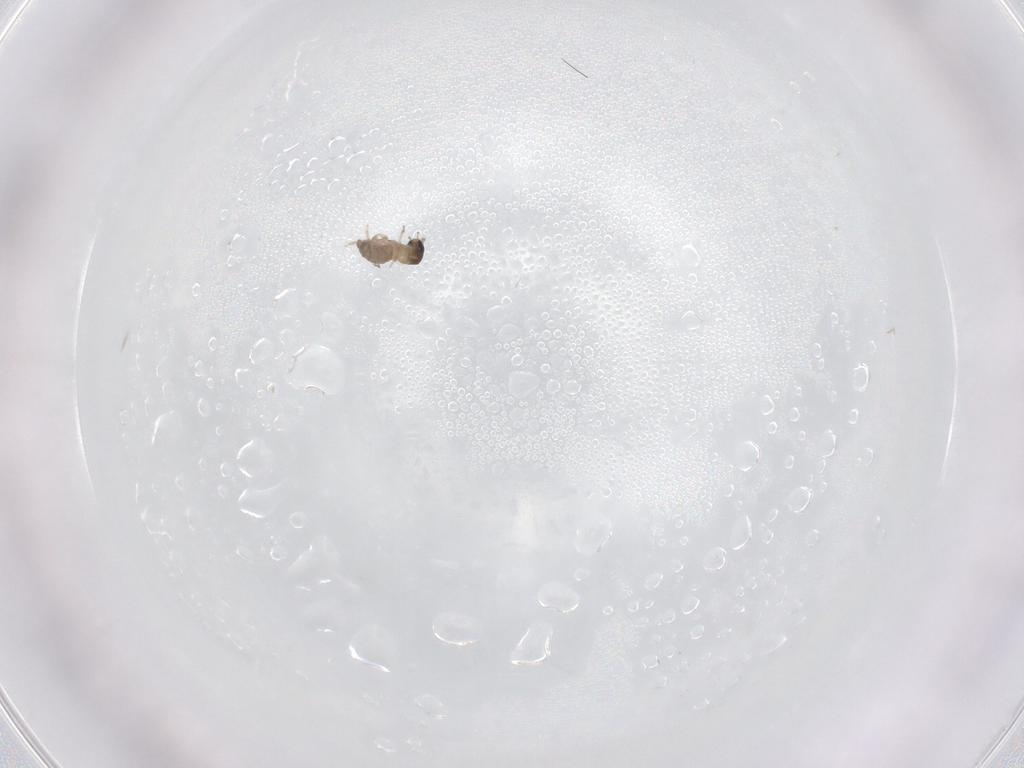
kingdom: Animalia
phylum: Arthropoda
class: Insecta
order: Diptera
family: Cecidomyiidae
